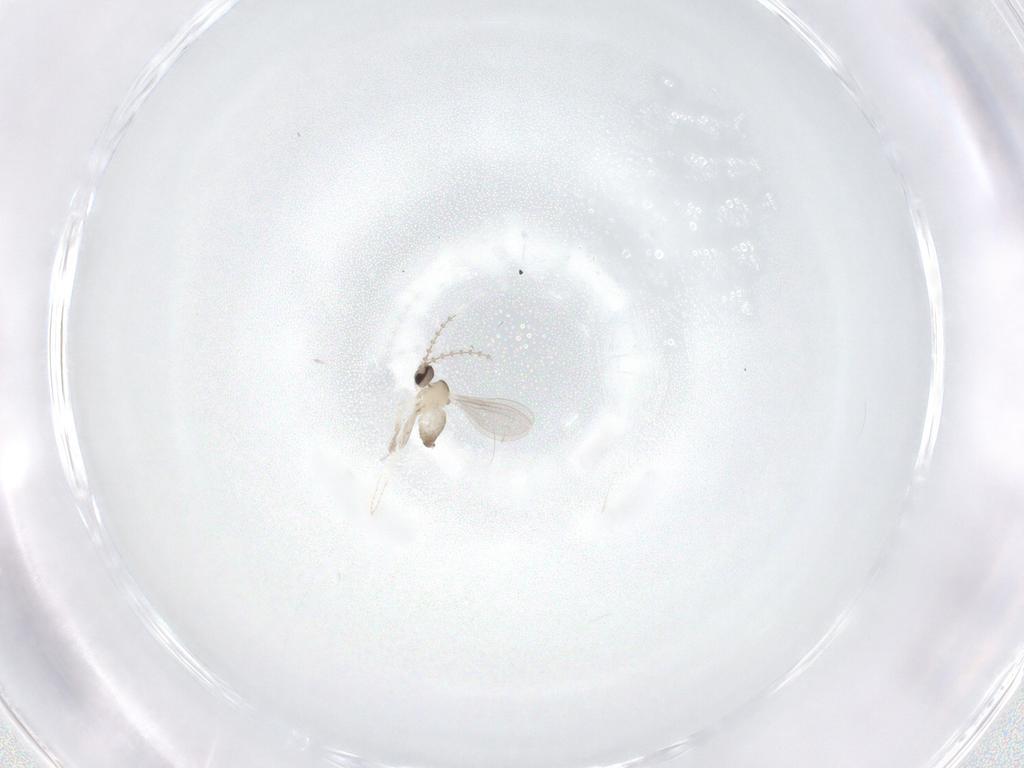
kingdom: Animalia
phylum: Arthropoda
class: Insecta
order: Diptera
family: Cecidomyiidae
